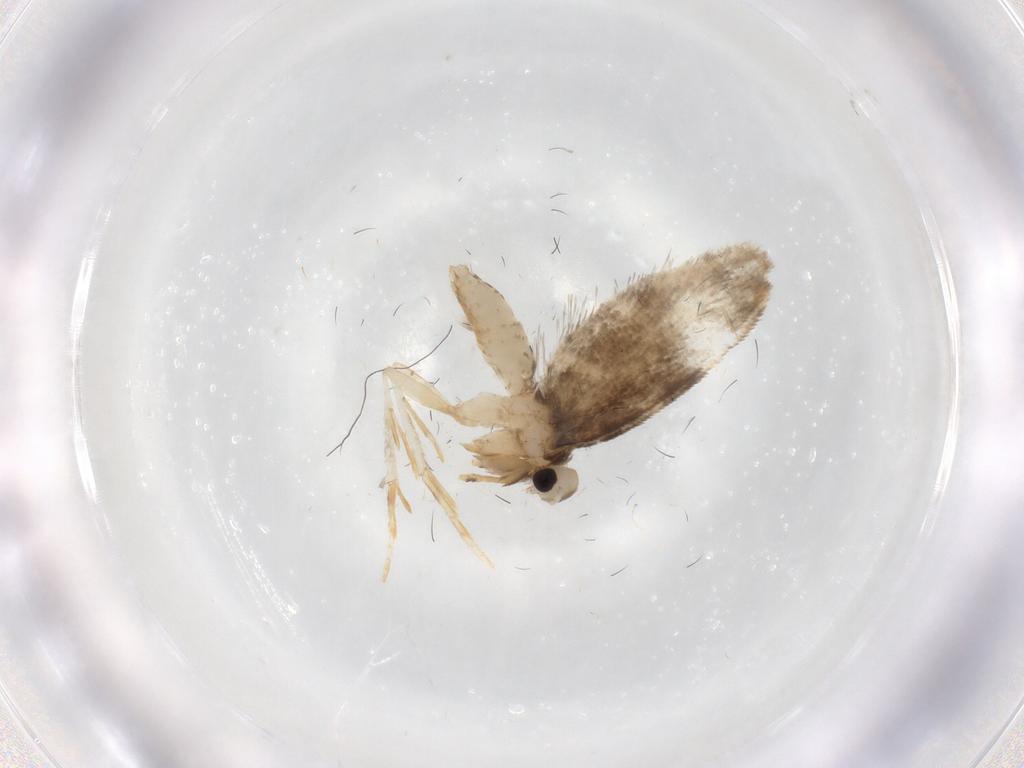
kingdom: Animalia
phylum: Arthropoda
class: Insecta
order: Lepidoptera
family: Psychidae
